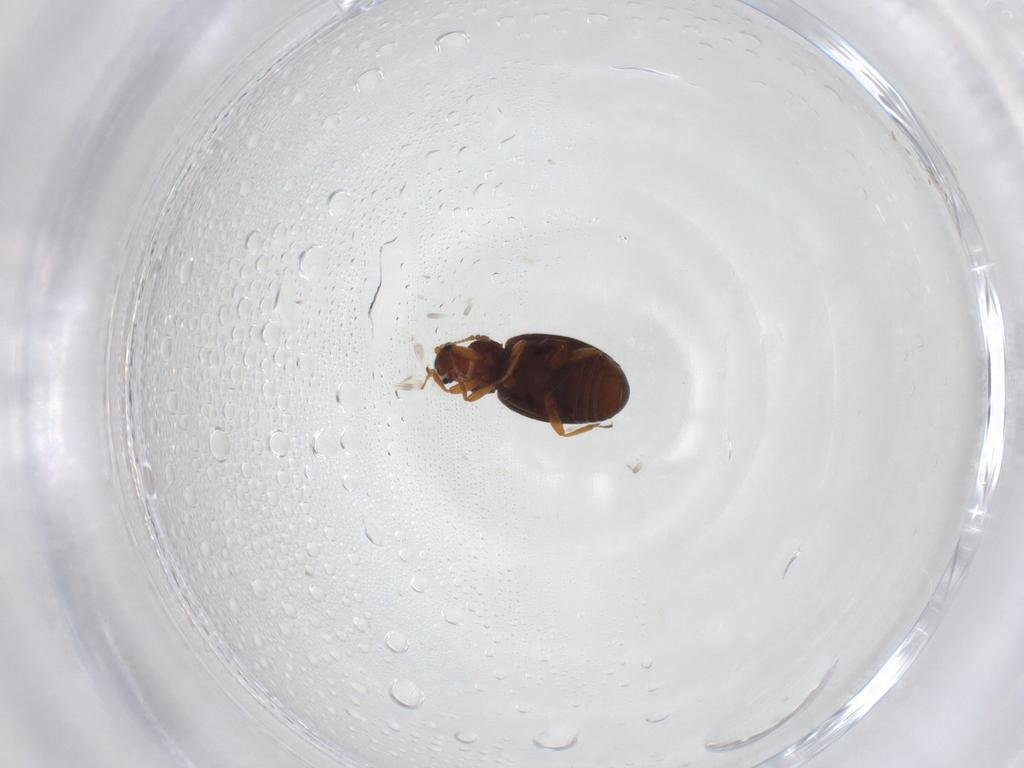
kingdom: Animalia
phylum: Arthropoda
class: Insecta
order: Coleoptera
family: Latridiidae
